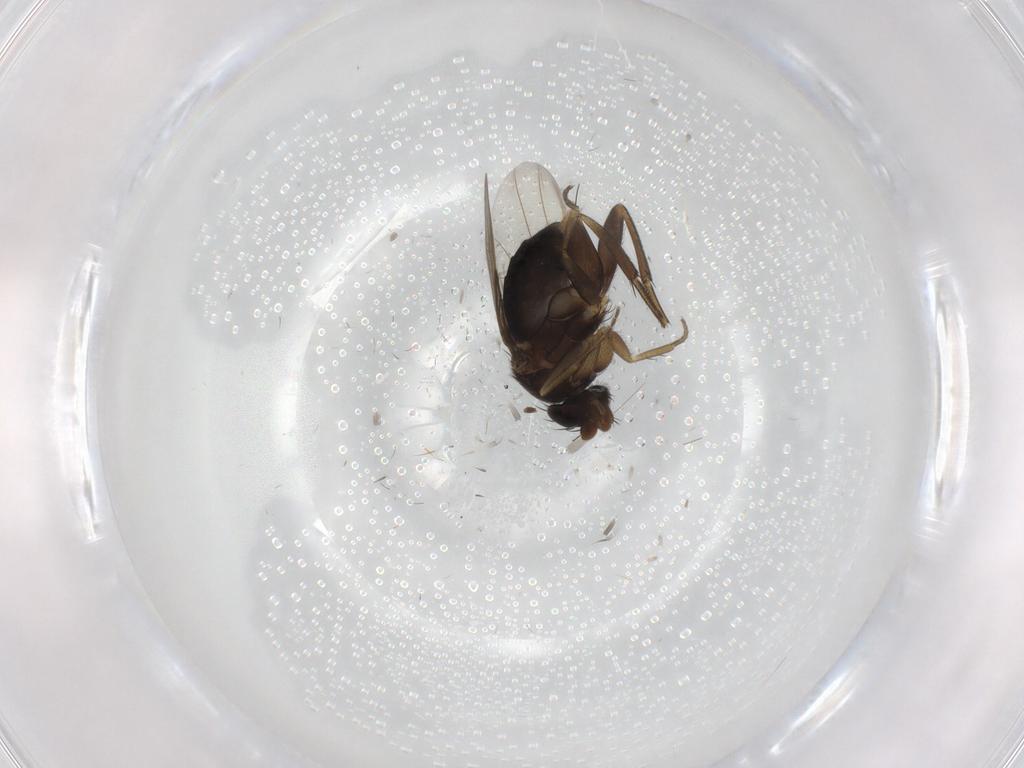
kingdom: Animalia
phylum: Arthropoda
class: Insecta
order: Diptera
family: Phoridae
